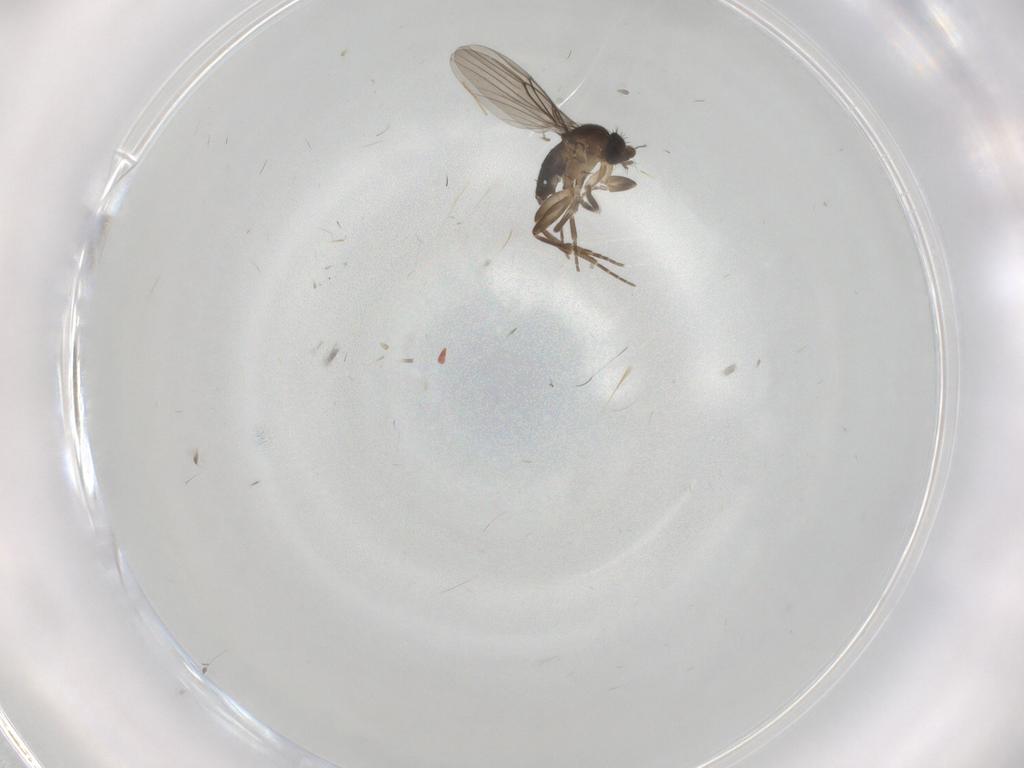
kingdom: Animalia
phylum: Arthropoda
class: Insecta
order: Diptera
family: Chironomidae
